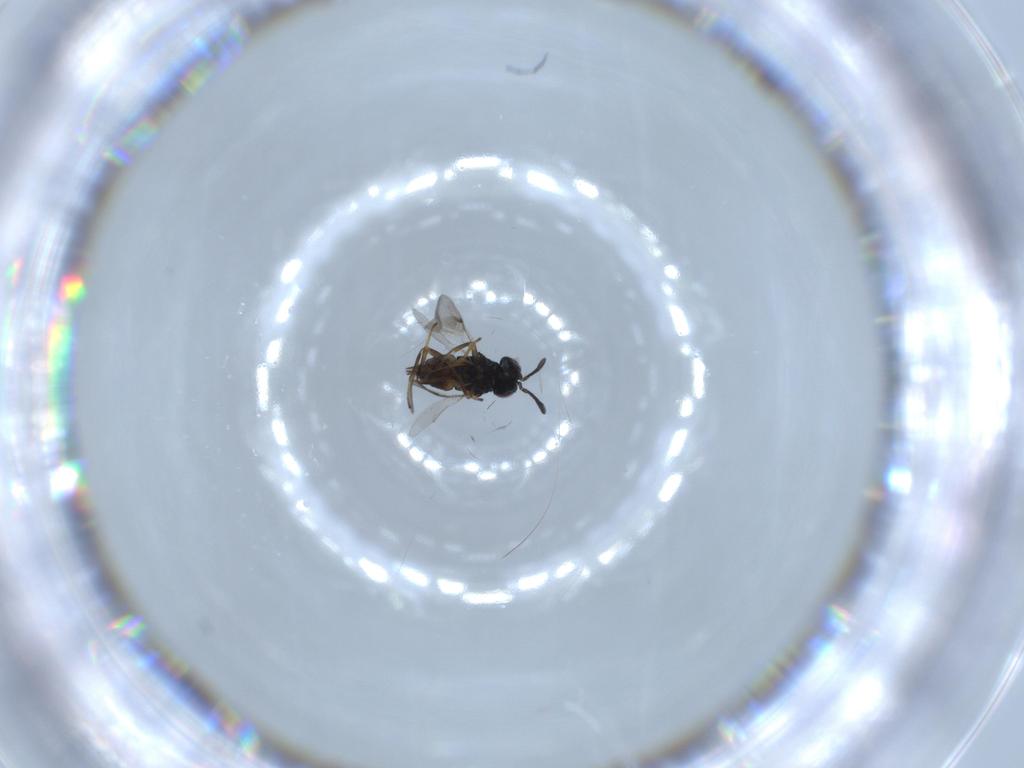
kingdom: Animalia
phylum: Arthropoda
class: Insecta
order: Hymenoptera
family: Encyrtidae
